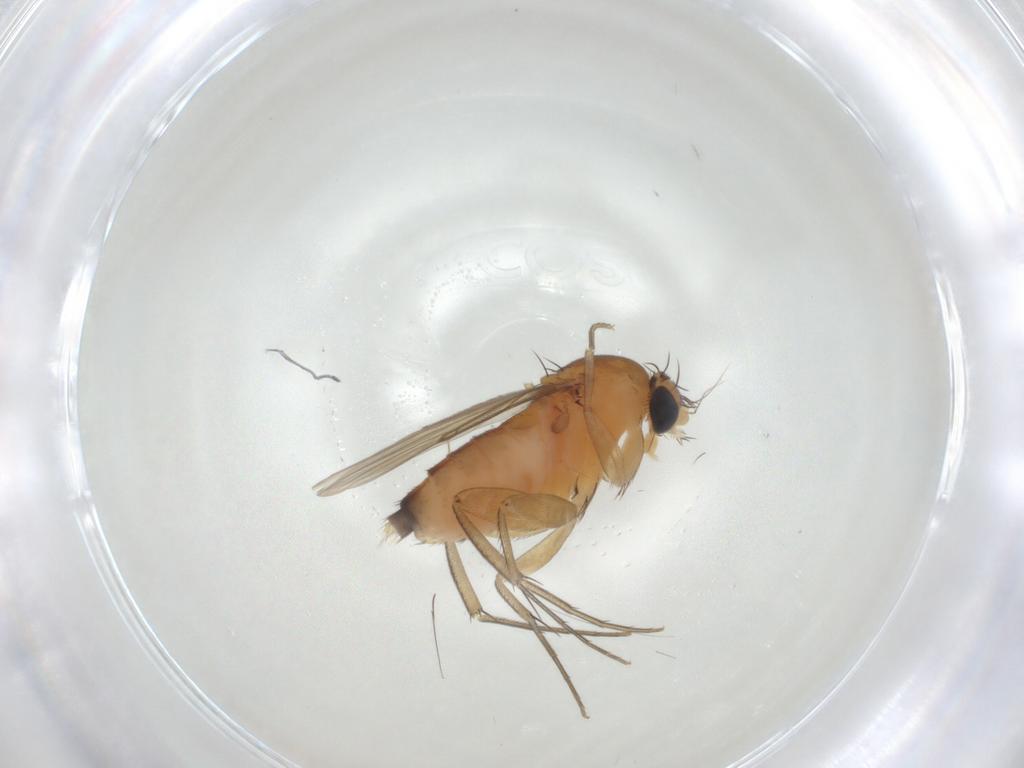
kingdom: Animalia
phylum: Arthropoda
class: Insecta
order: Diptera
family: Phoridae
